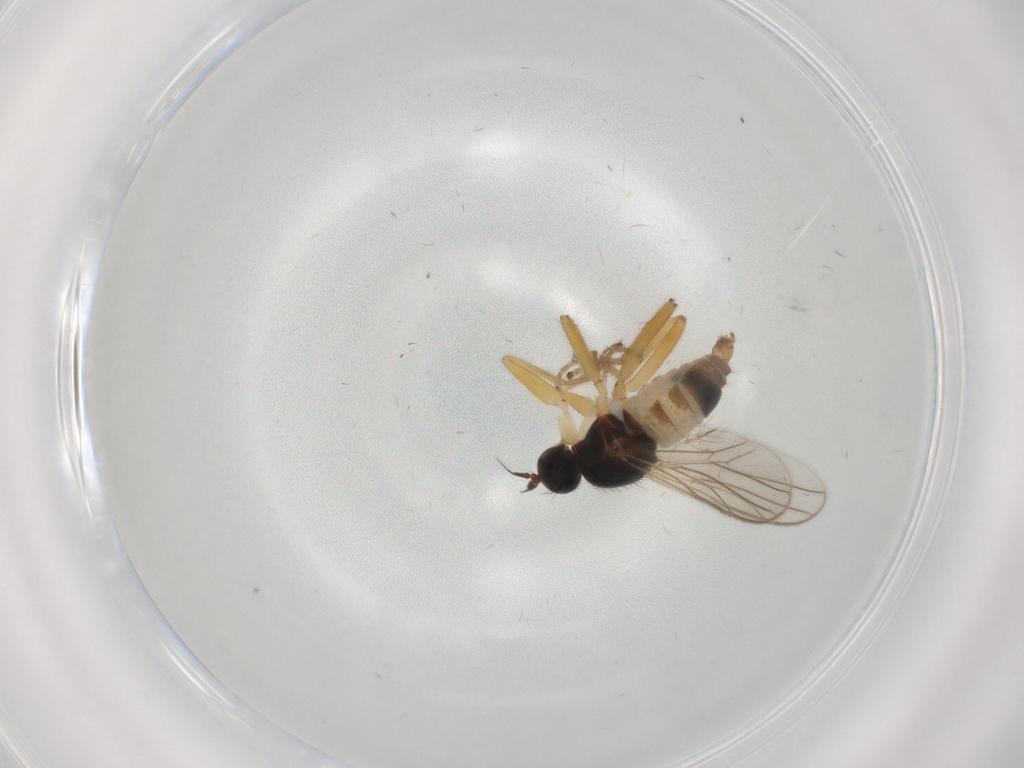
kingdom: Animalia
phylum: Arthropoda
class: Insecta
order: Diptera
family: Hybotidae
